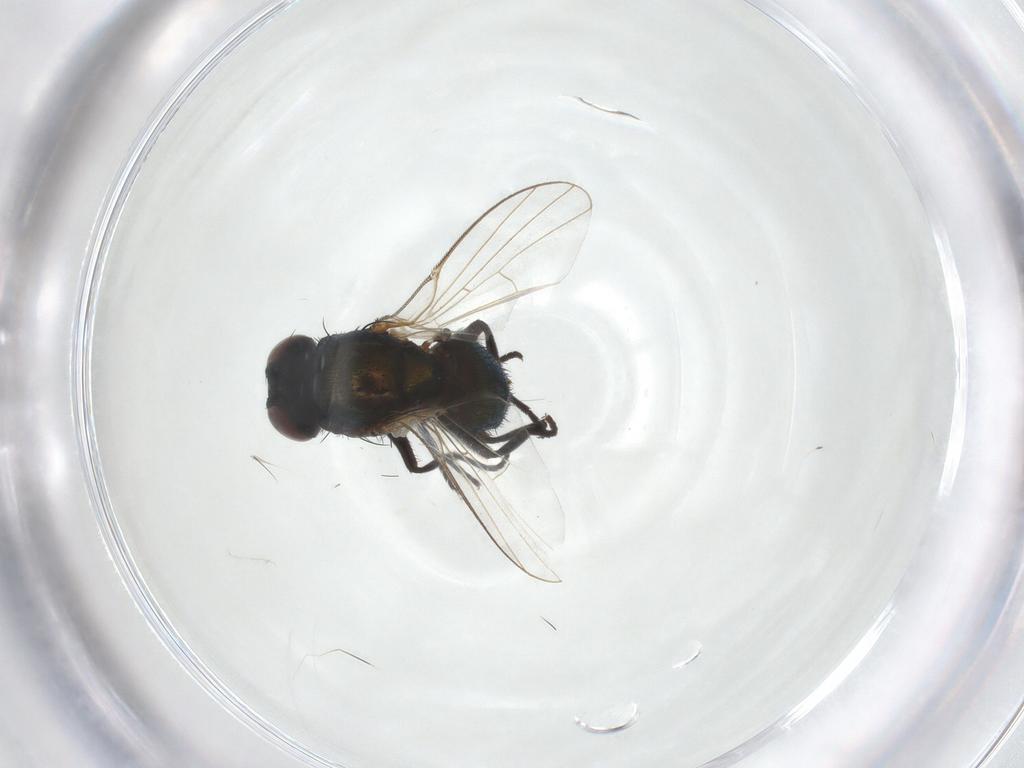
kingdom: Animalia
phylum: Arthropoda
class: Insecta
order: Diptera
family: Agromyzidae
